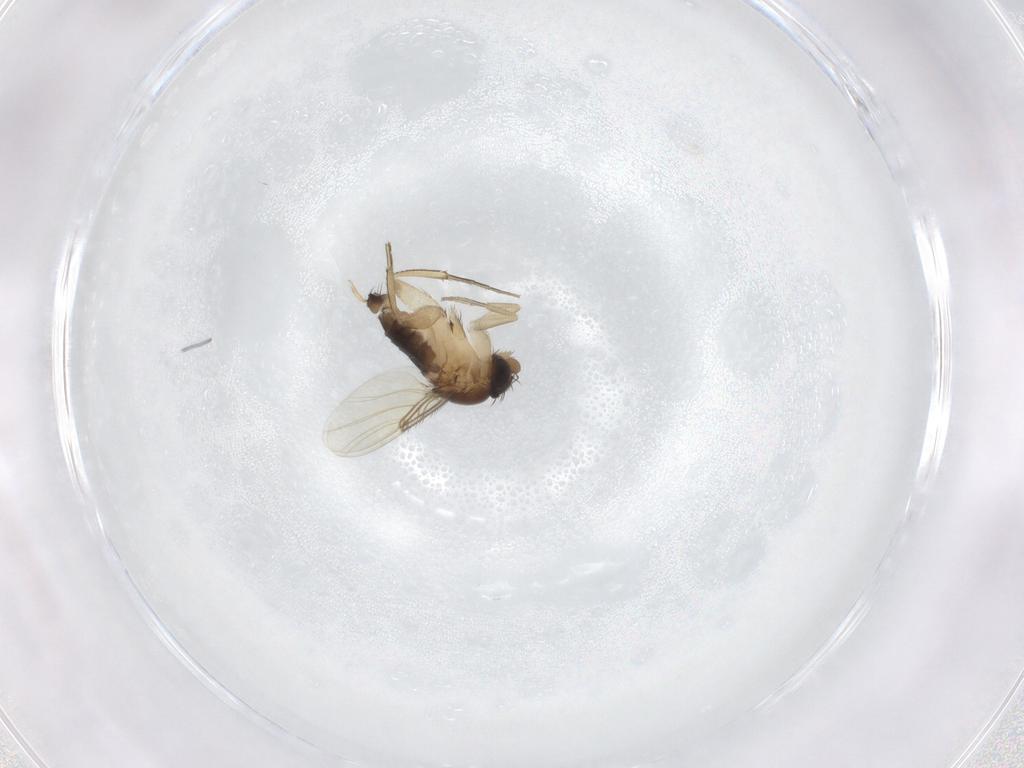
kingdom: Animalia
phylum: Arthropoda
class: Insecta
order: Diptera
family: Phoridae
